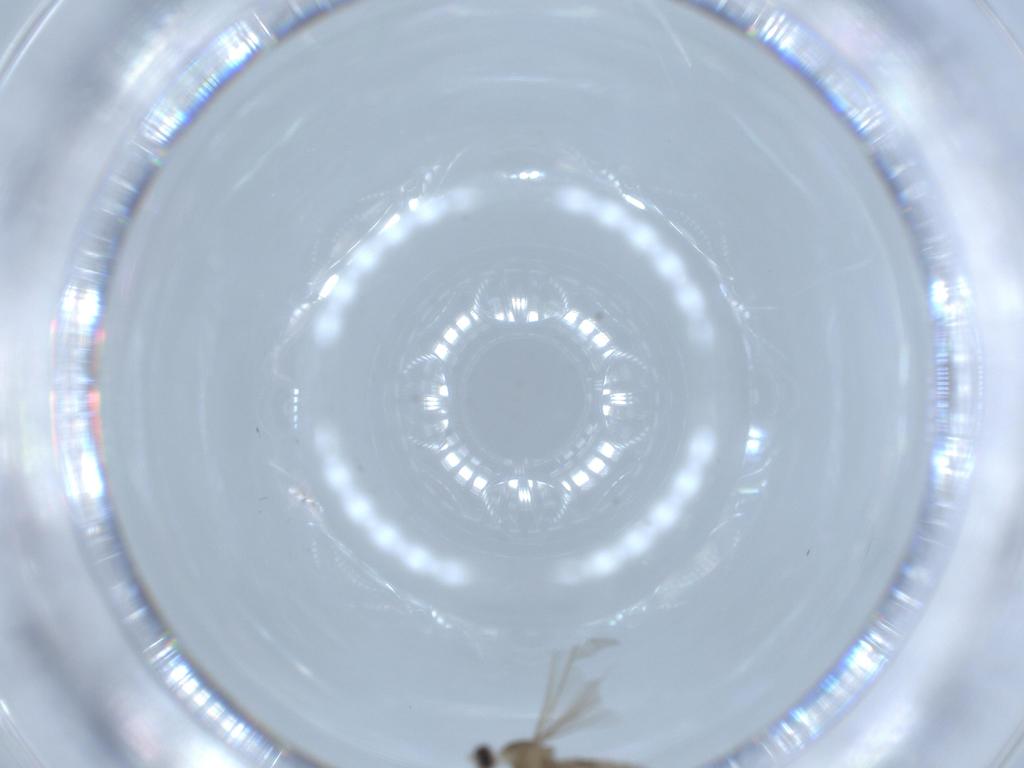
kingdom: Animalia
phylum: Arthropoda
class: Insecta
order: Diptera
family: Cecidomyiidae
